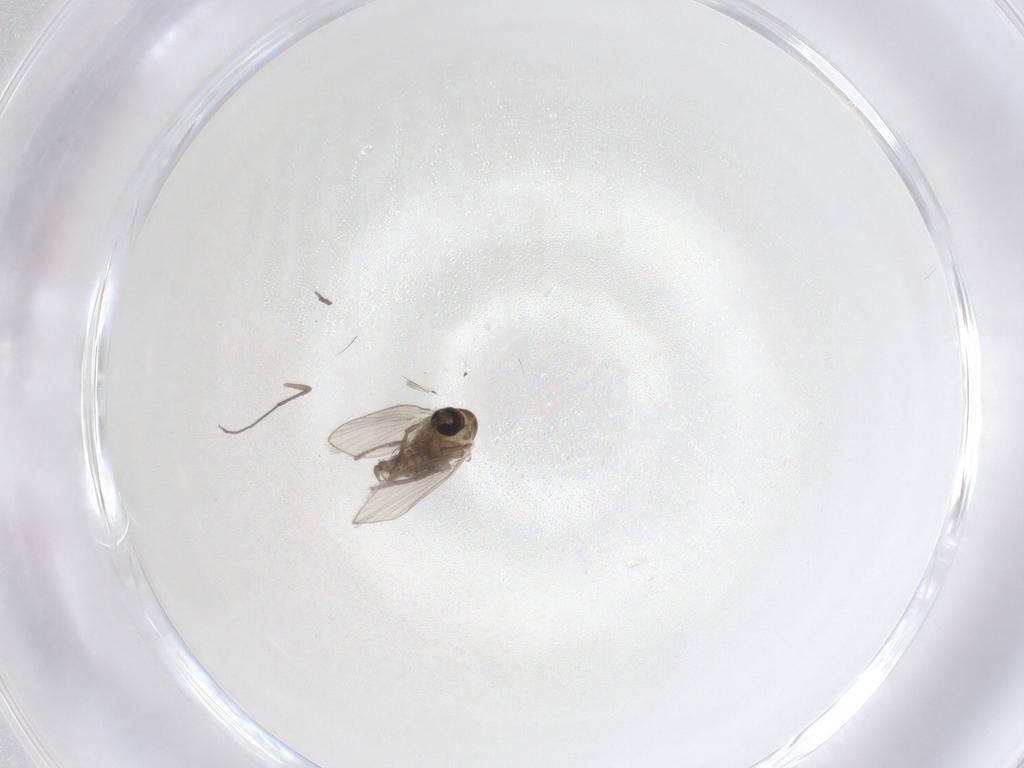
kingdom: Animalia
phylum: Arthropoda
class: Insecta
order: Diptera
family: Psychodidae
